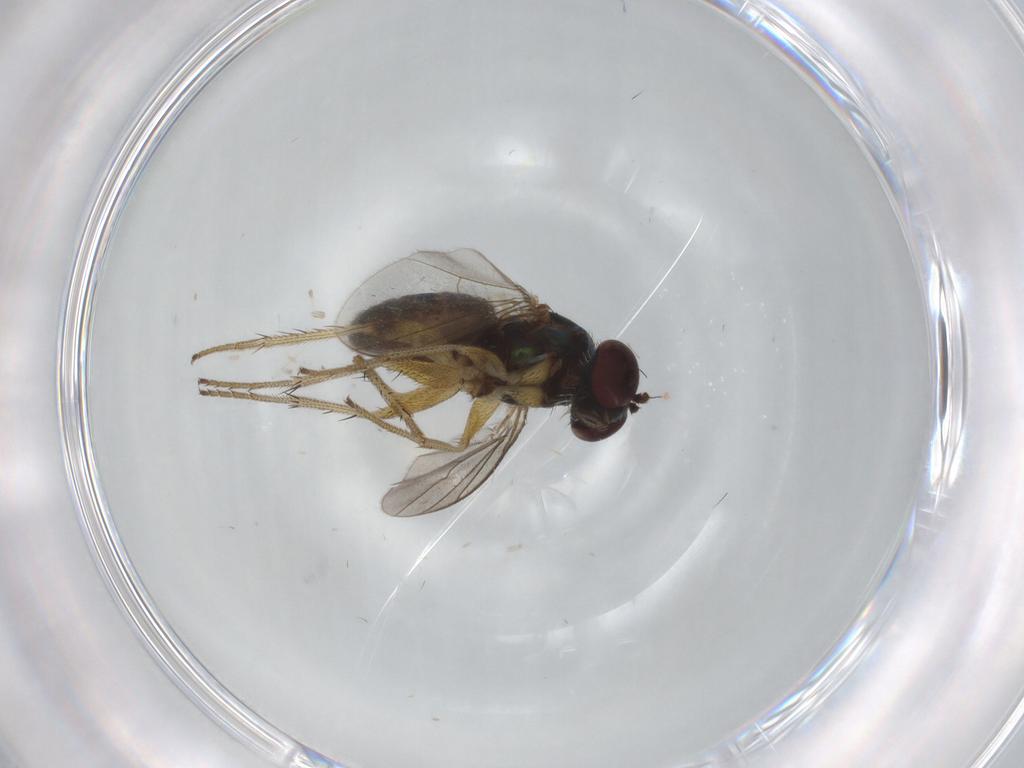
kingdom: Animalia
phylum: Arthropoda
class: Insecta
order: Diptera
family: Dolichopodidae
